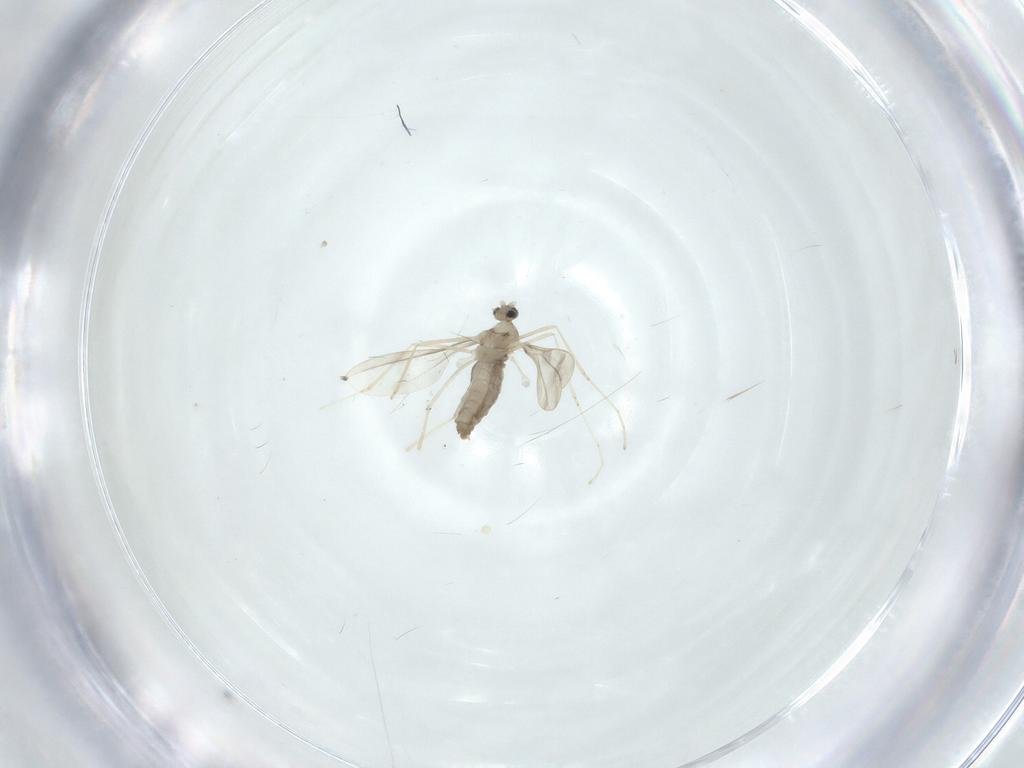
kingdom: Animalia
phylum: Arthropoda
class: Insecta
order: Diptera
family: Cecidomyiidae
